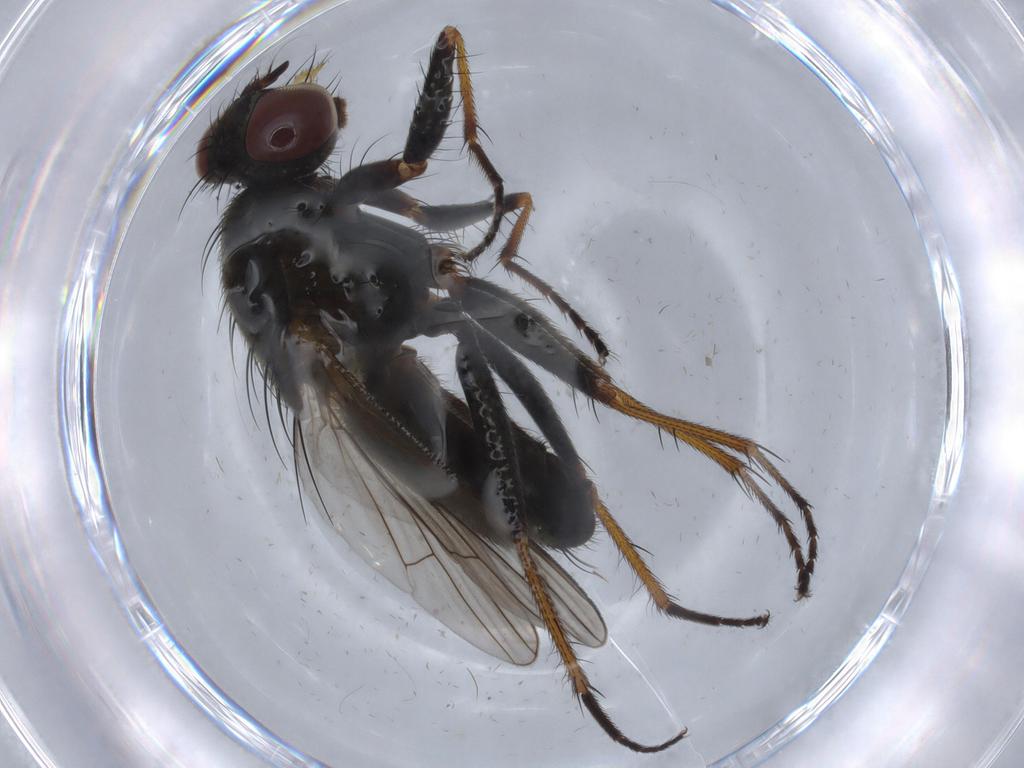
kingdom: Animalia
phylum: Arthropoda
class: Insecta
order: Diptera
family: Muscidae
